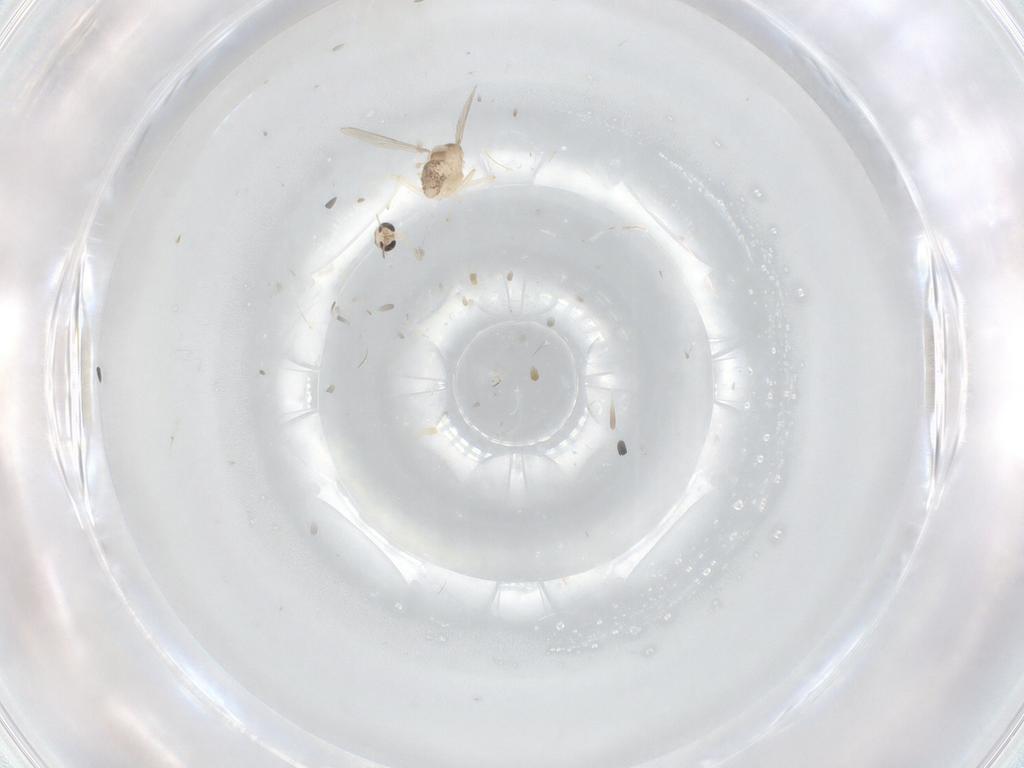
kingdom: Animalia
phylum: Arthropoda
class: Insecta
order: Diptera
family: Chironomidae
